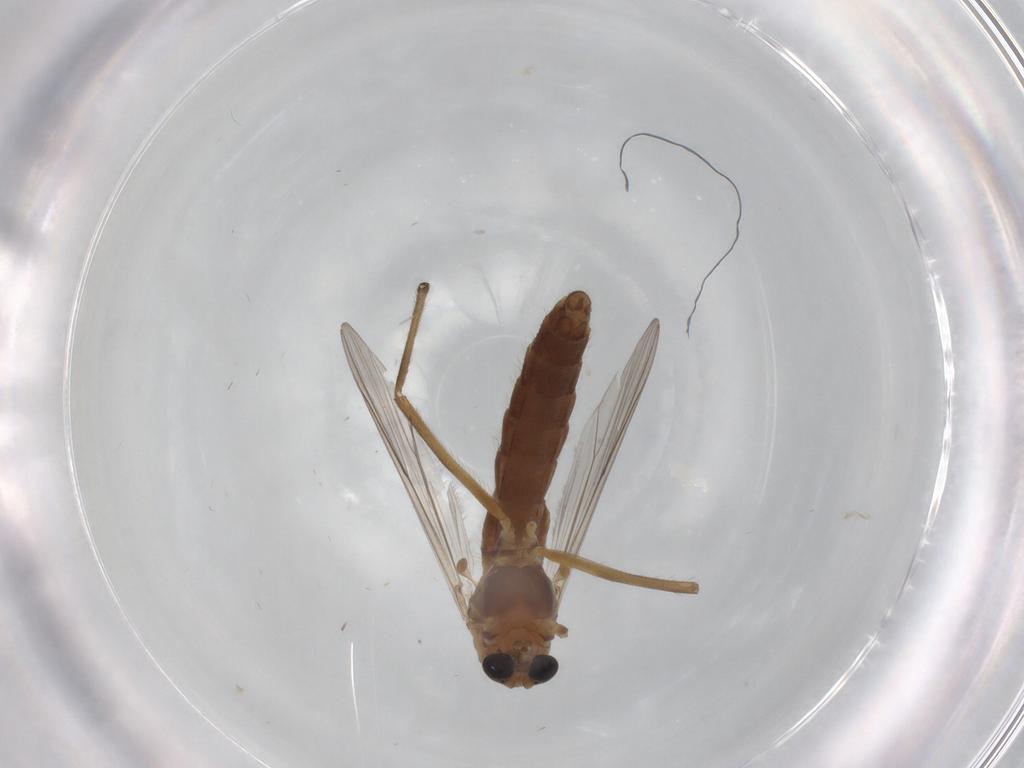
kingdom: Animalia
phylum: Arthropoda
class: Insecta
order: Diptera
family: Chironomidae
